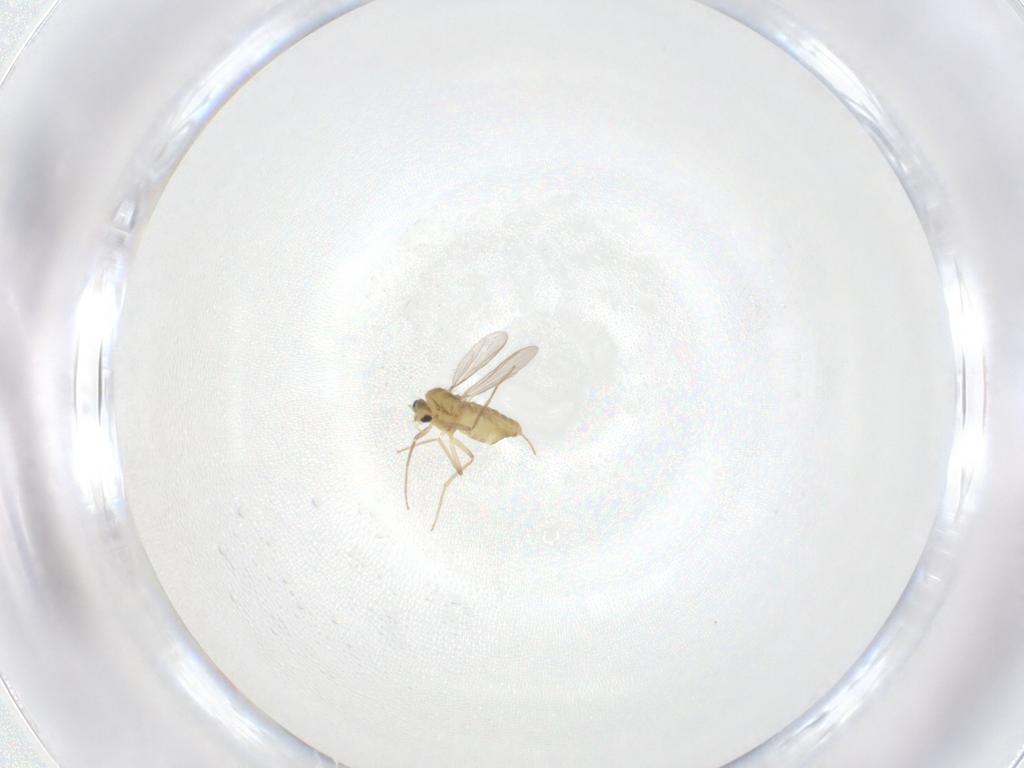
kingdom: Animalia
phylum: Arthropoda
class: Insecta
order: Diptera
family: Chironomidae
